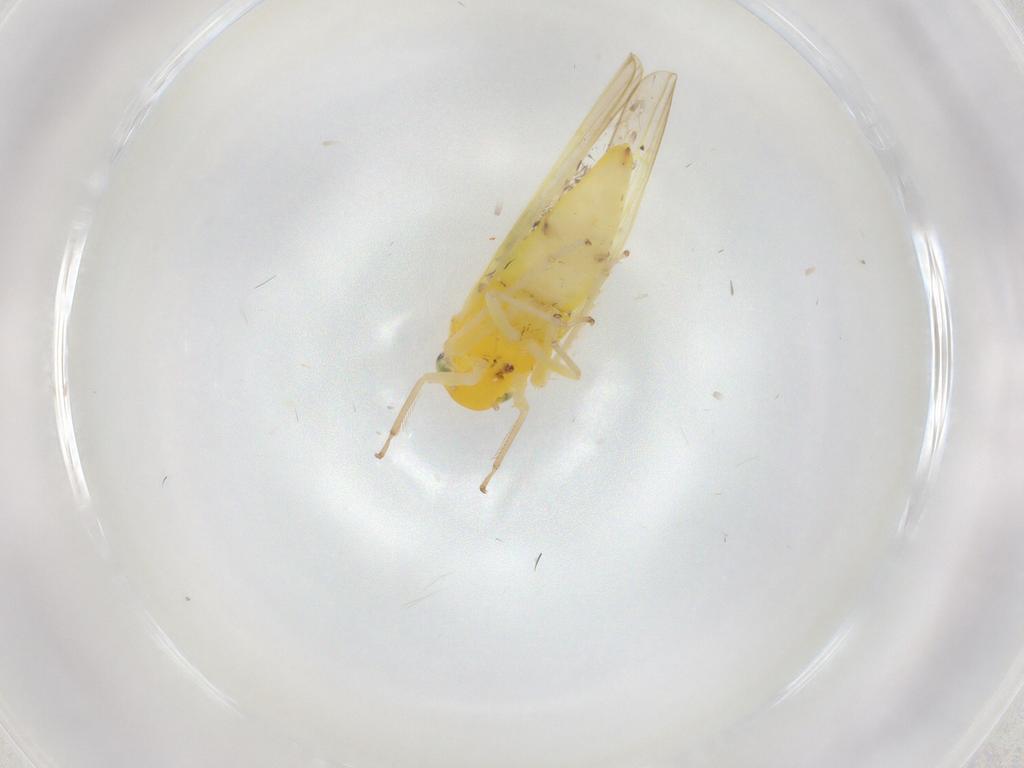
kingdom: Animalia
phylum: Arthropoda
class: Insecta
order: Hemiptera
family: Cicadellidae
